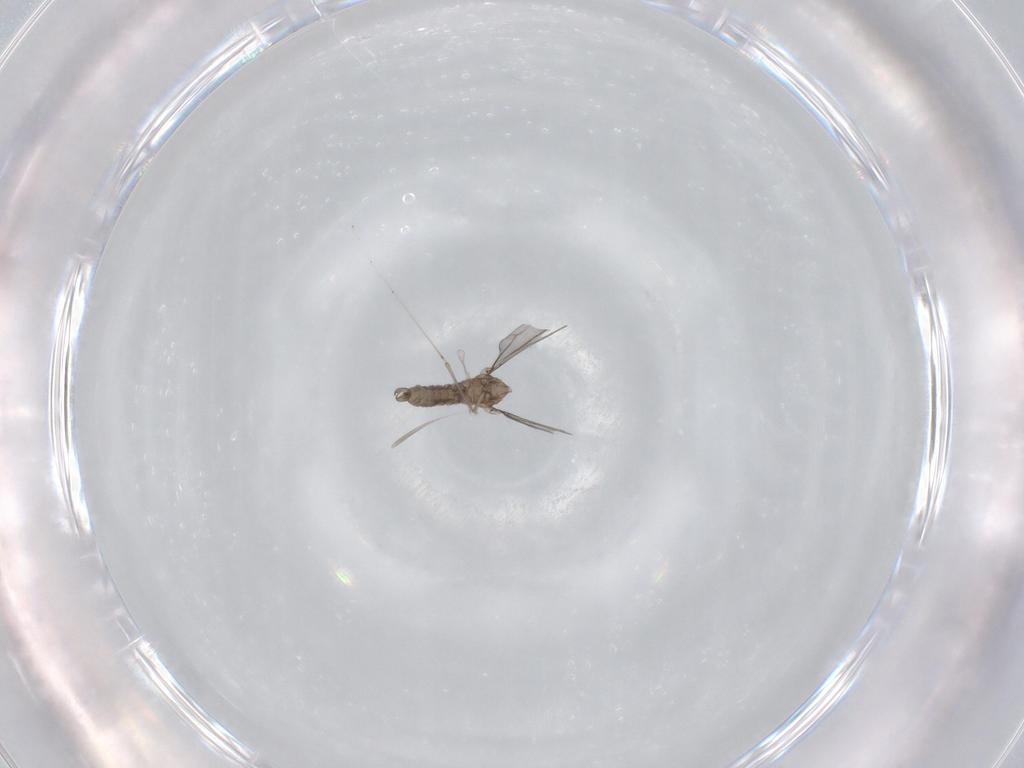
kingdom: Animalia
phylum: Arthropoda
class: Insecta
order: Diptera
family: Cecidomyiidae
